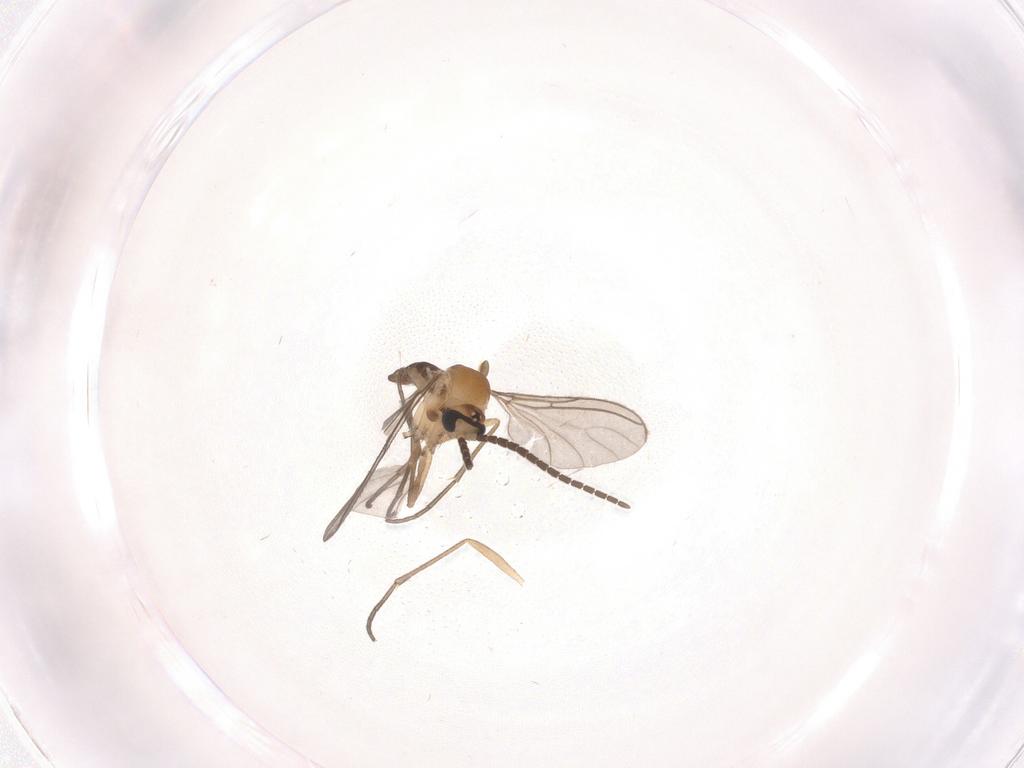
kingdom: Animalia
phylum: Arthropoda
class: Insecta
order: Diptera
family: Sciaridae
